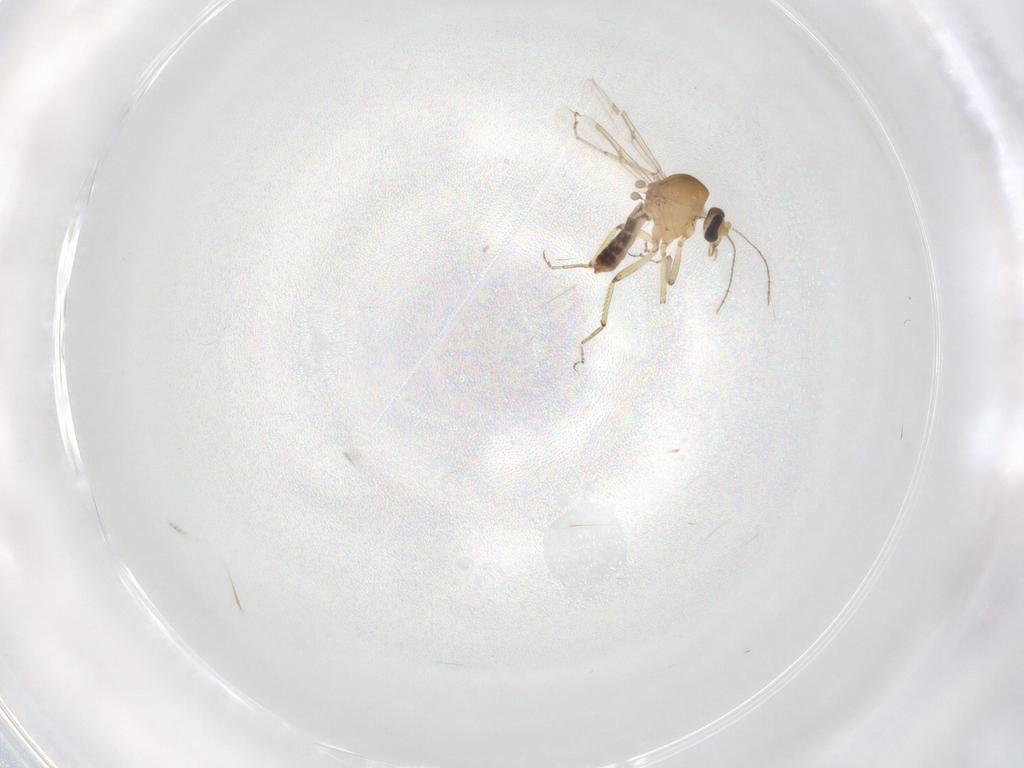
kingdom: Animalia
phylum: Arthropoda
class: Insecta
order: Diptera
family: Ceratopogonidae
